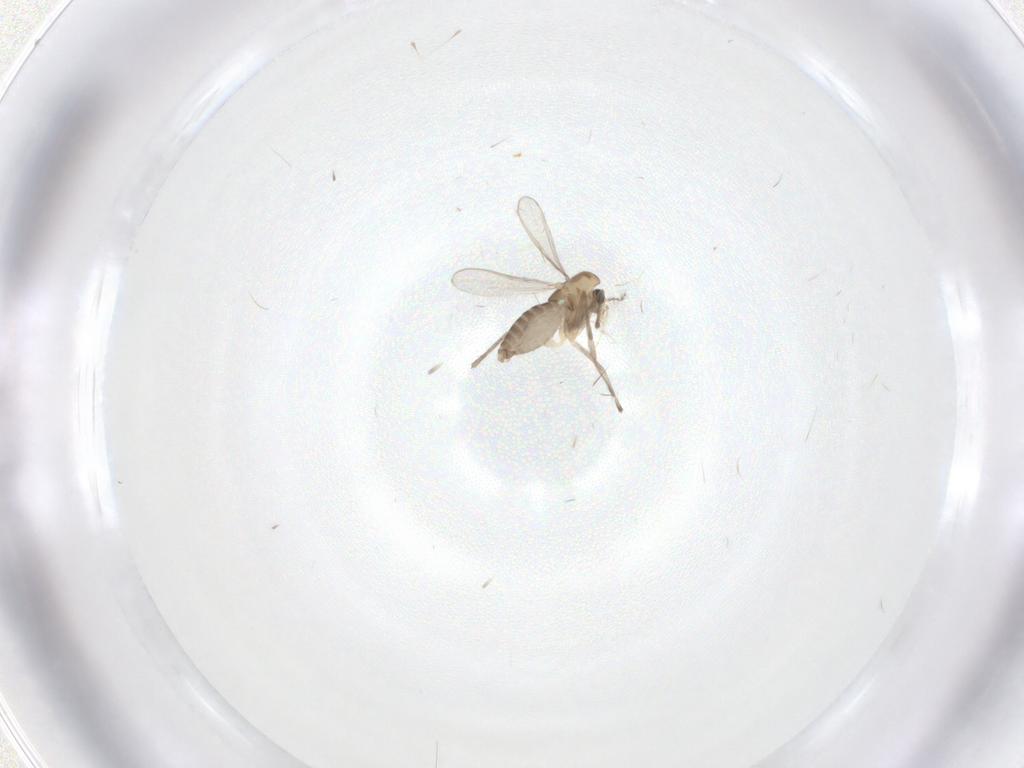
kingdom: Animalia
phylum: Arthropoda
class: Insecta
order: Diptera
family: Chironomidae
